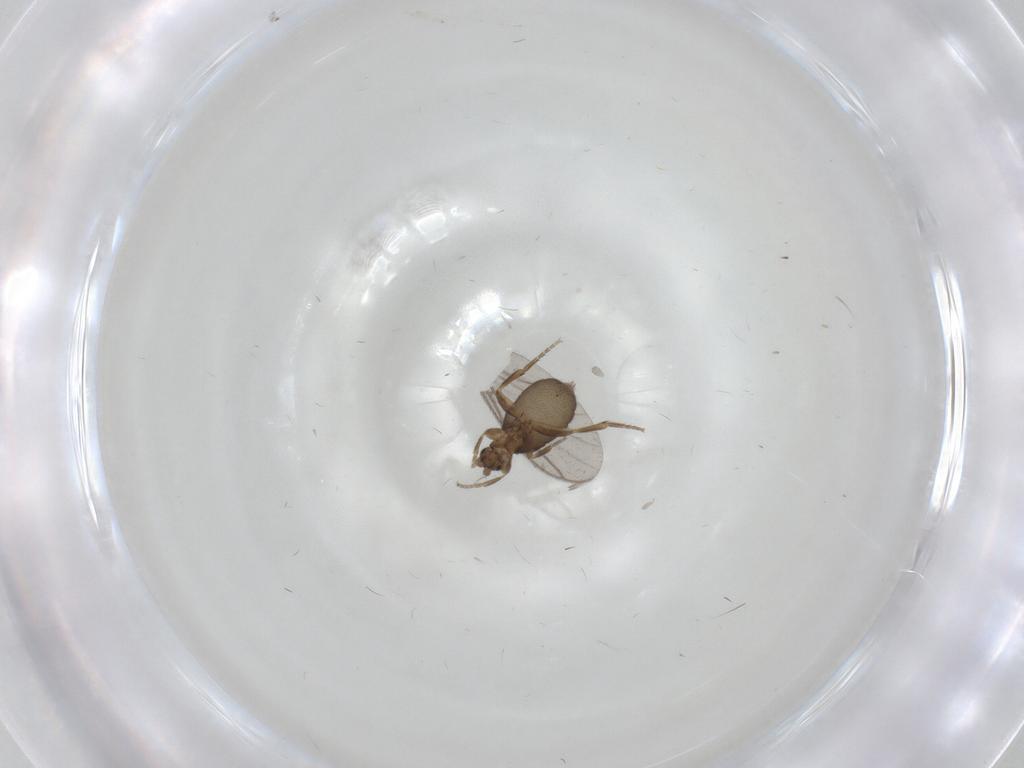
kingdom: Animalia
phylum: Arthropoda
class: Insecta
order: Diptera
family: Phoridae
